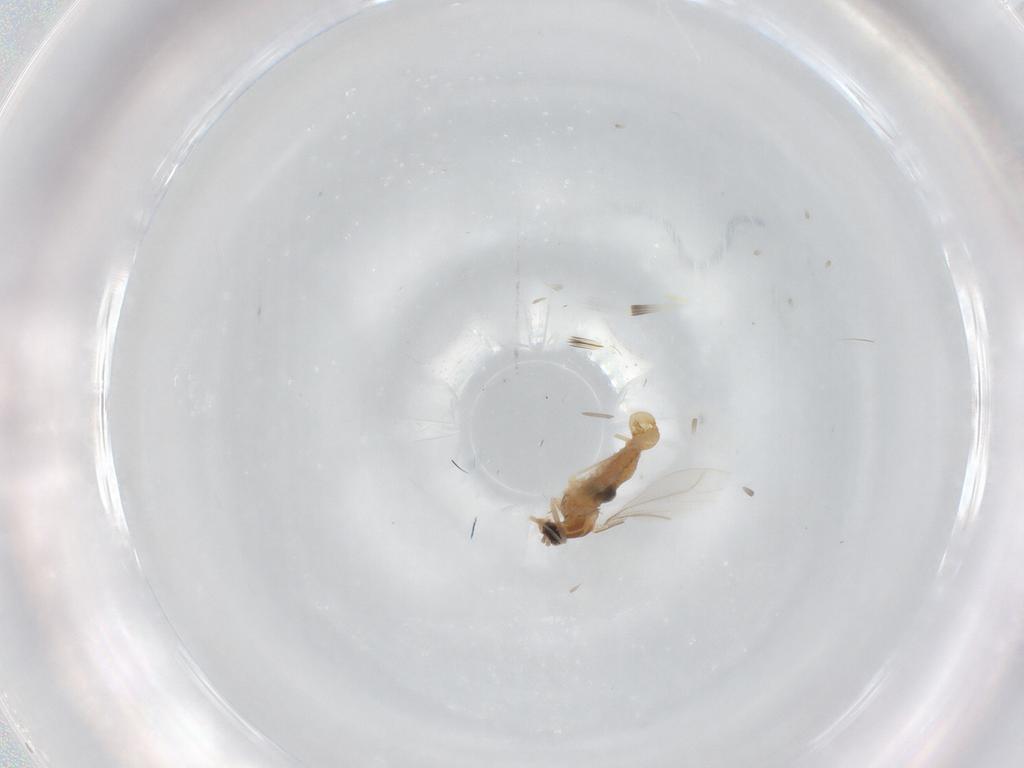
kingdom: Animalia
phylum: Arthropoda
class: Insecta
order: Diptera
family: Cecidomyiidae
